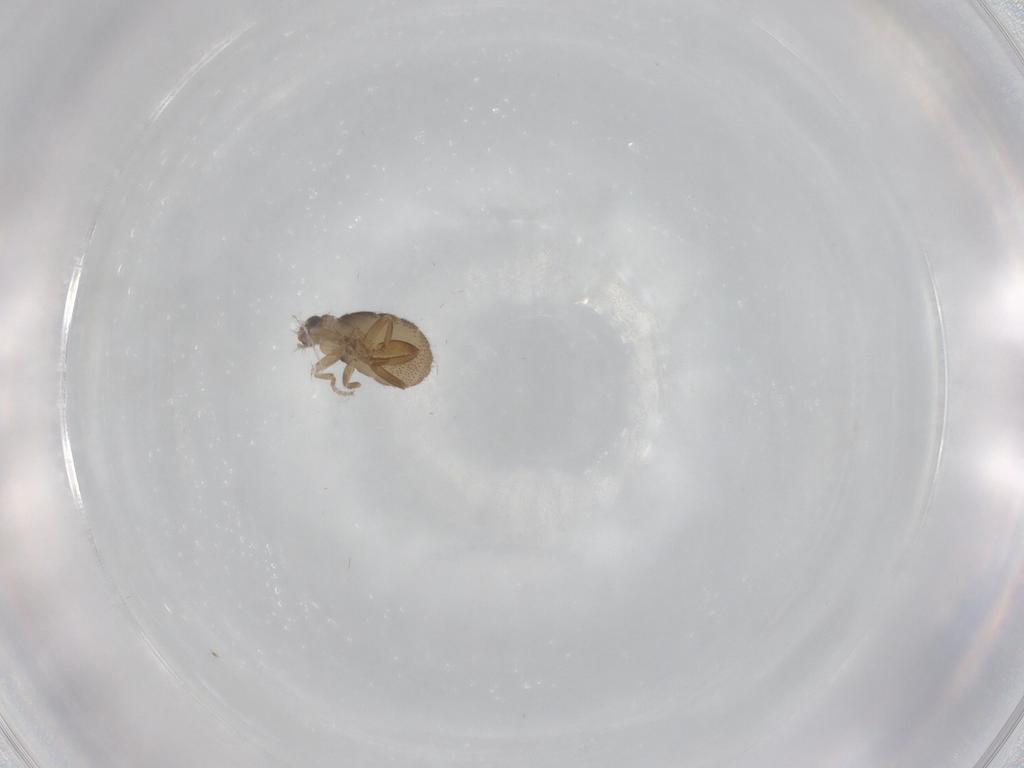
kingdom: Animalia
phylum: Arthropoda
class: Insecta
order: Diptera
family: Phoridae
